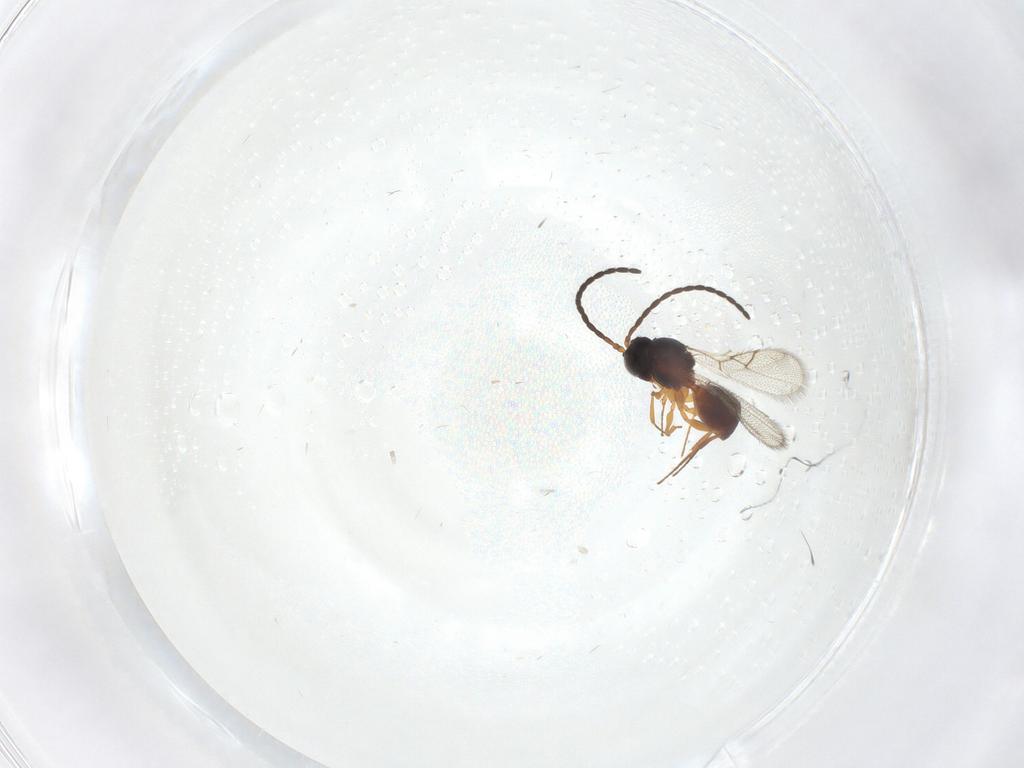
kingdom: Animalia
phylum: Arthropoda
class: Insecta
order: Hymenoptera
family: Figitidae
